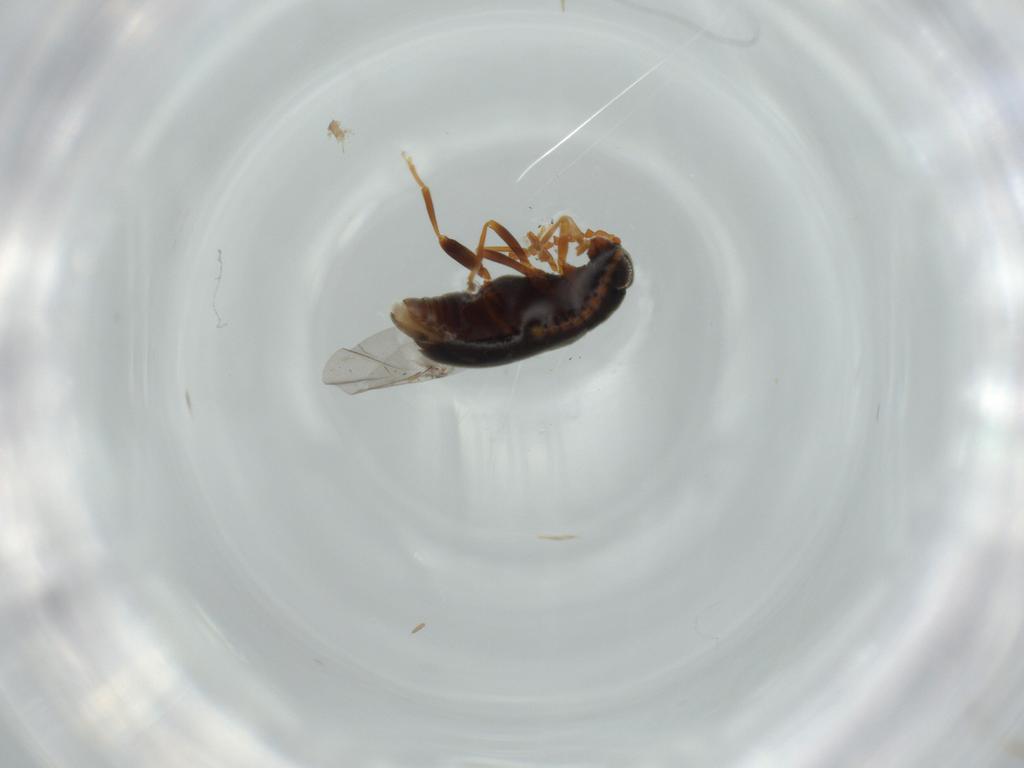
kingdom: Animalia
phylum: Arthropoda
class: Insecta
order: Coleoptera
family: Aderidae
